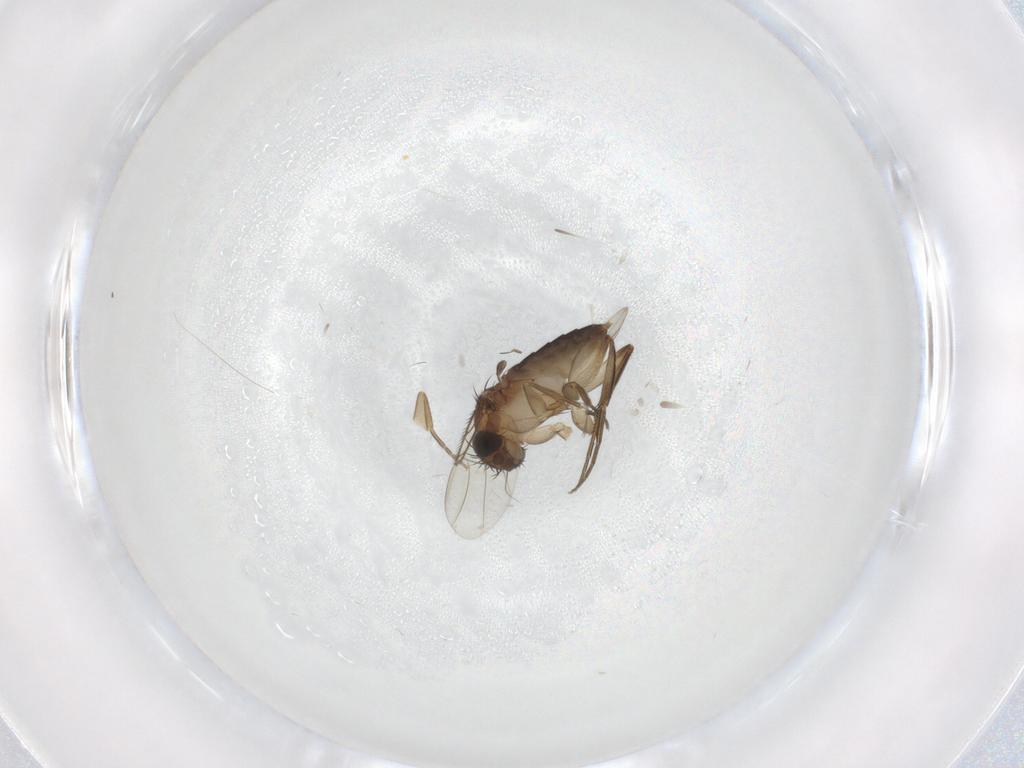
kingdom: Animalia
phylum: Arthropoda
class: Insecta
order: Diptera
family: Phoridae
